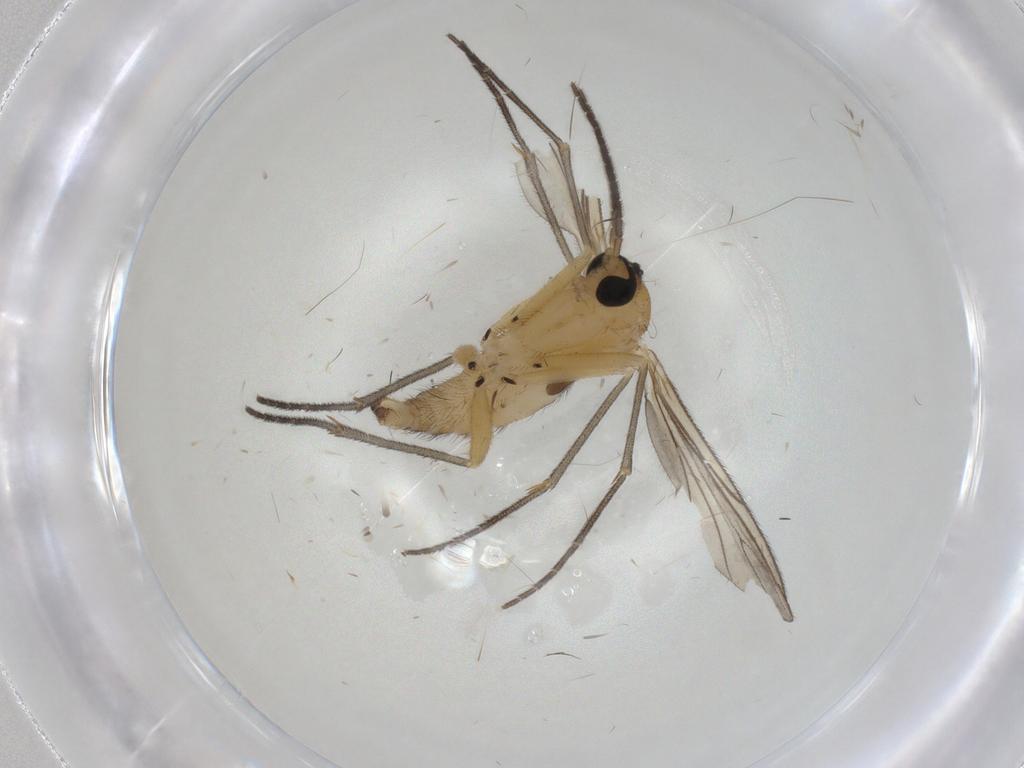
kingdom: Animalia
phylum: Arthropoda
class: Insecta
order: Diptera
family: Sciaridae
